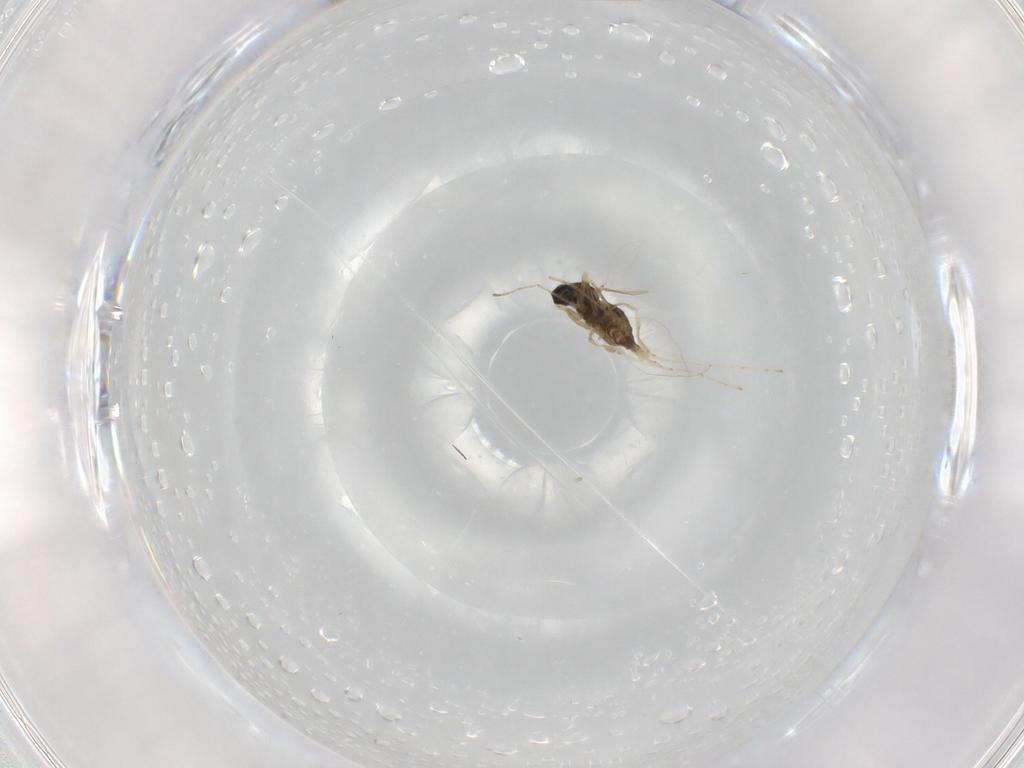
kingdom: Animalia
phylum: Arthropoda
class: Insecta
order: Diptera
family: Cecidomyiidae
